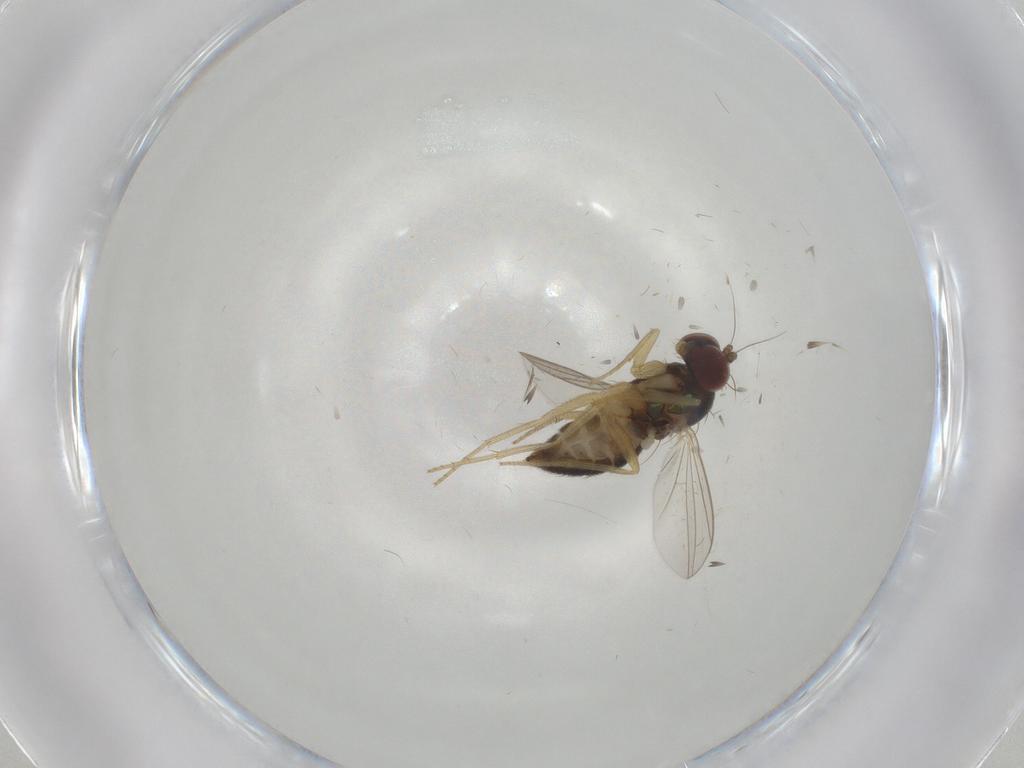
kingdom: Animalia
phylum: Arthropoda
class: Insecta
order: Diptera
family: Dolichopodidae
